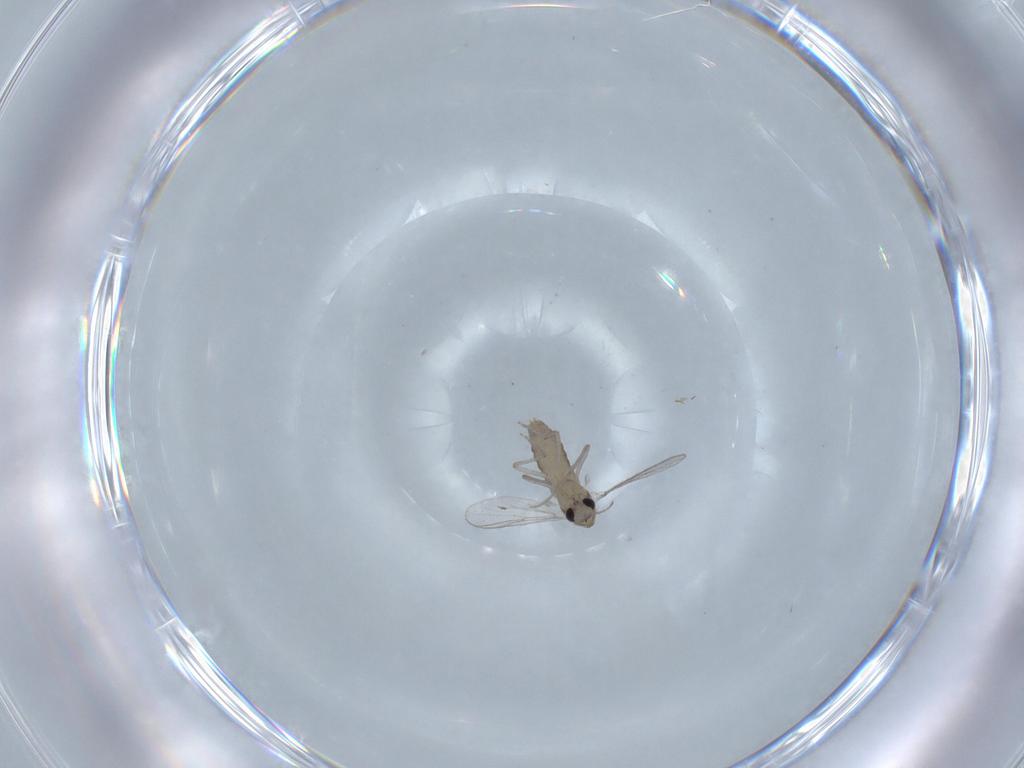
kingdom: Animalia
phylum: Arthropoda
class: Insecta
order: Diptera
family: Chironomidae
